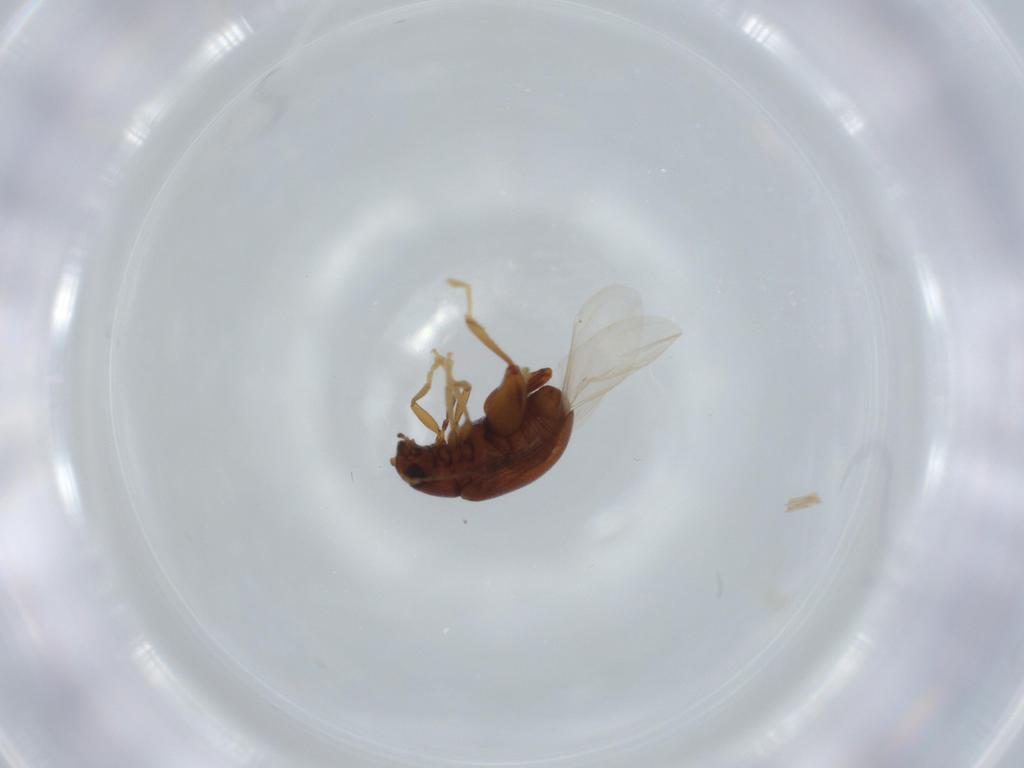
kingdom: Animalia
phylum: Arthropoda
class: Insecta
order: Coleoptera
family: Chrysomelidae
